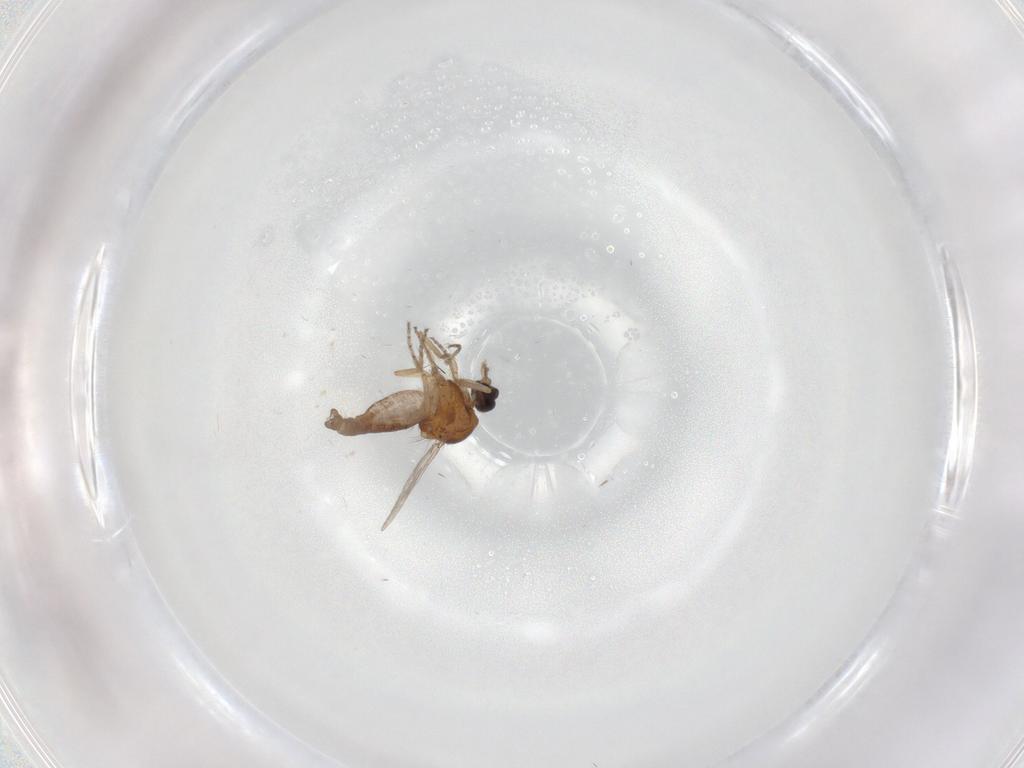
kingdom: Animalia
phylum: Arthropoda
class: Insecta
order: Diptera
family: Ceratopogonidae
